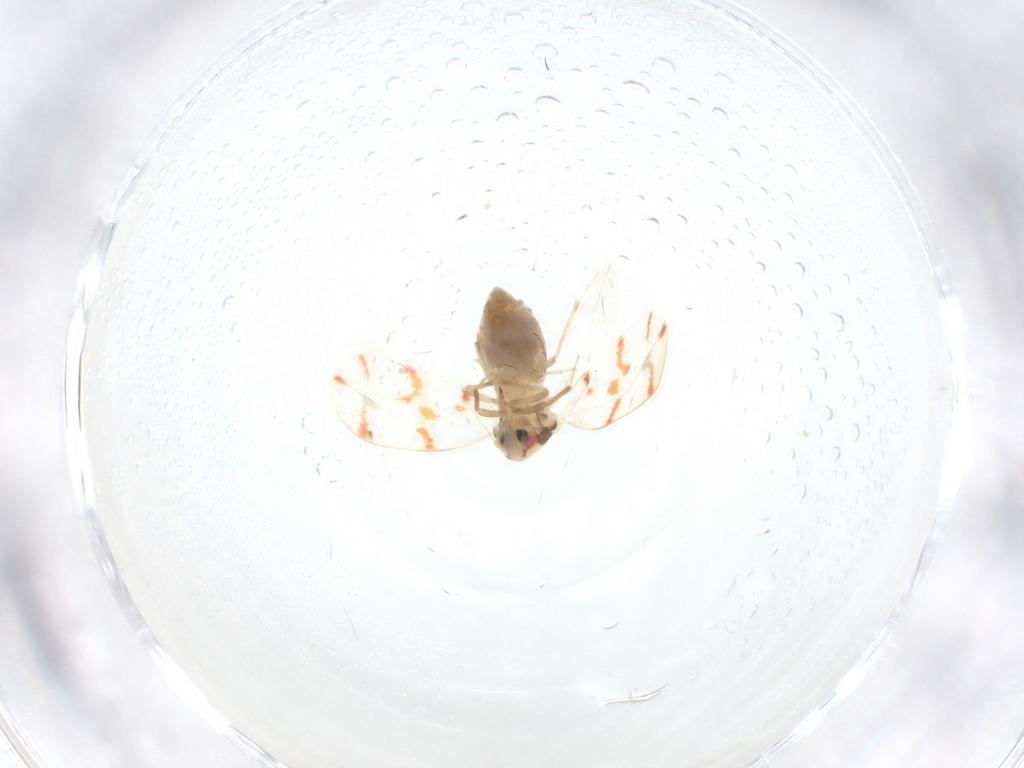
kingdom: Animalia
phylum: Arthropoda
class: Insecta
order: Hemiptera
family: Aleyrodidae
